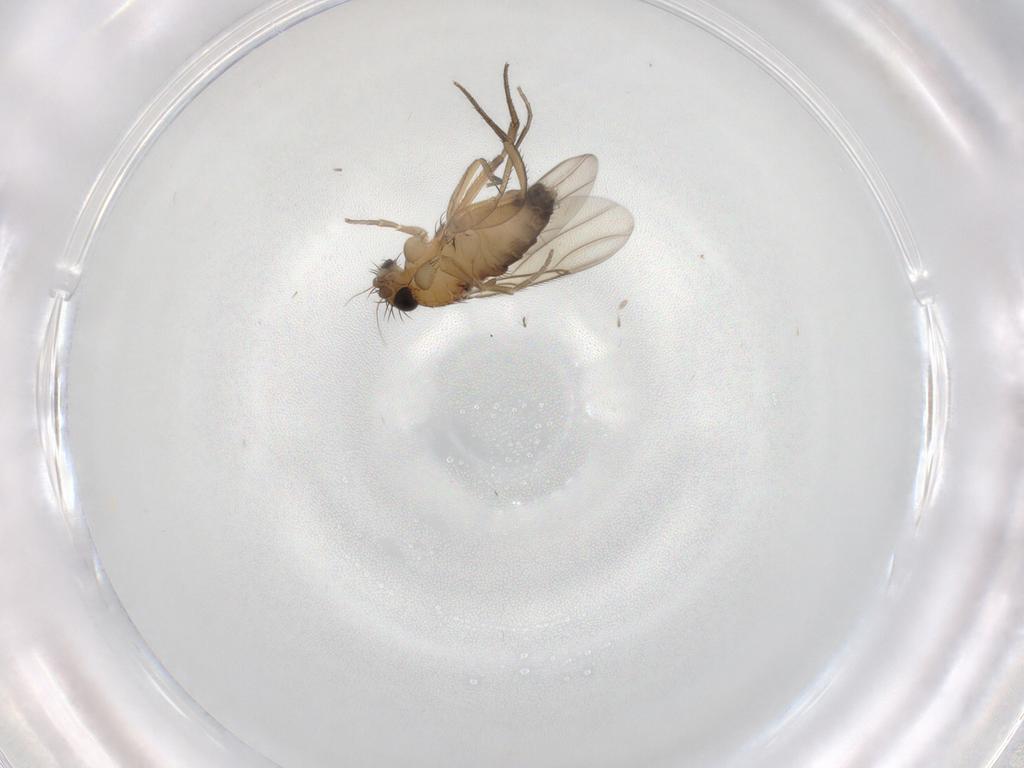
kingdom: Animalia
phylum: Arthropoda
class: Insecta
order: Diptera
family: Phoridae
